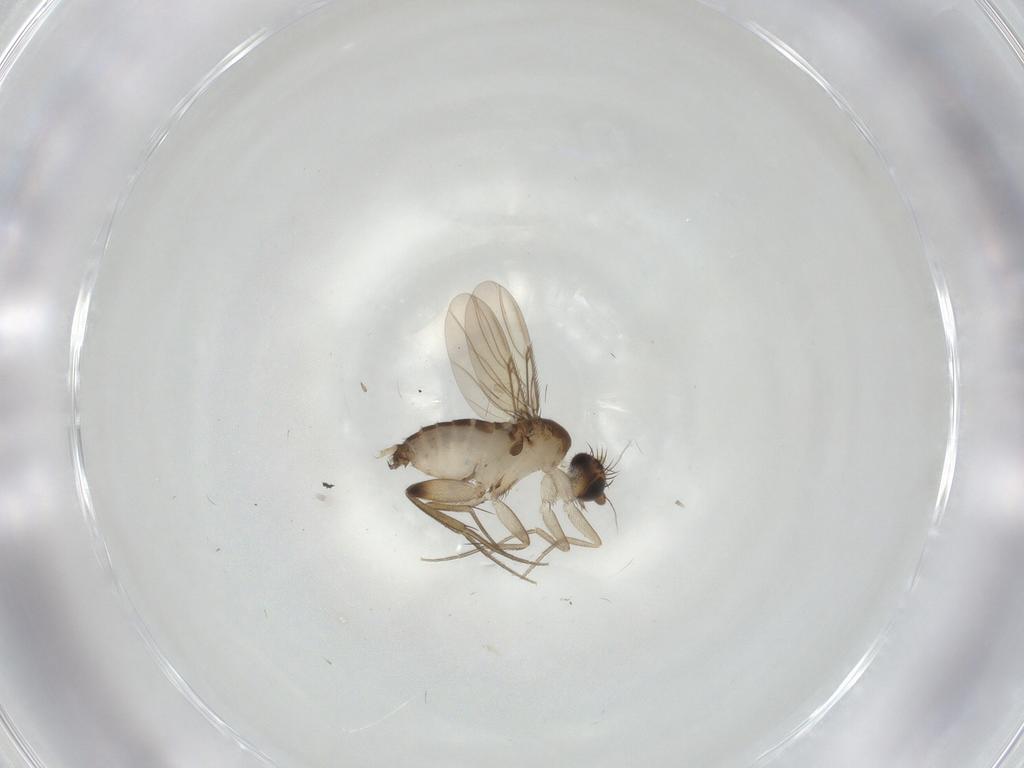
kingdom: Animalia
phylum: Arthropoda
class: Insecta
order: Diptera
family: Phoridae
